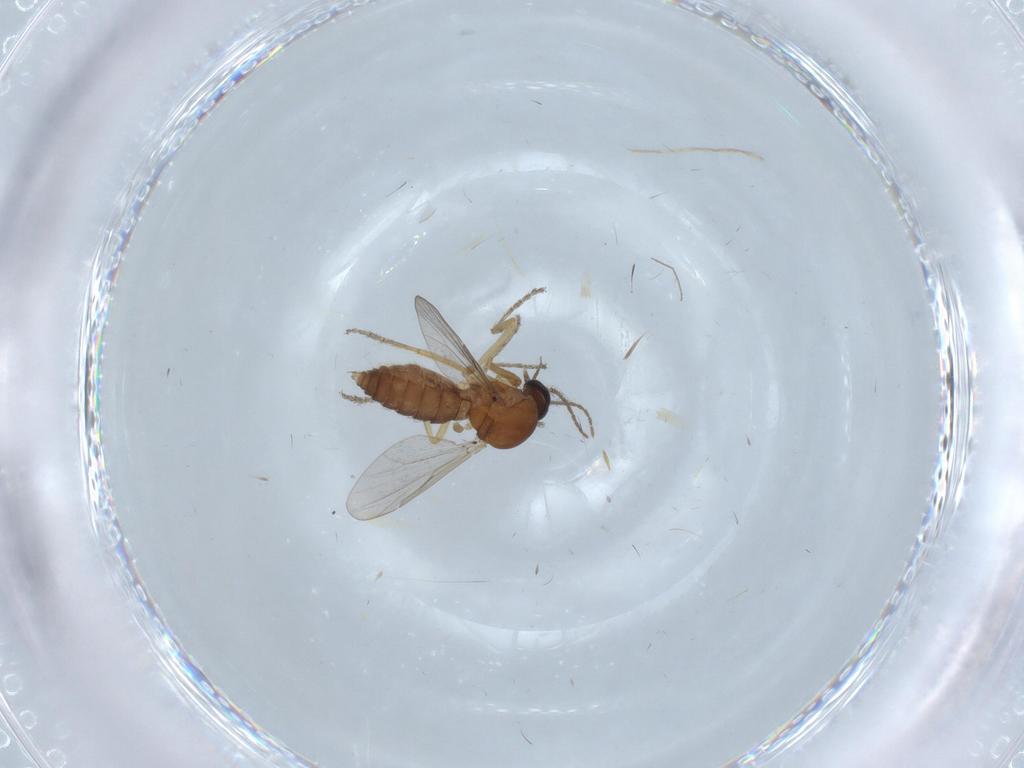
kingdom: Animalia
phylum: Arthropoda
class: Insecta
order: Diptera
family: Ceratopogonidae
